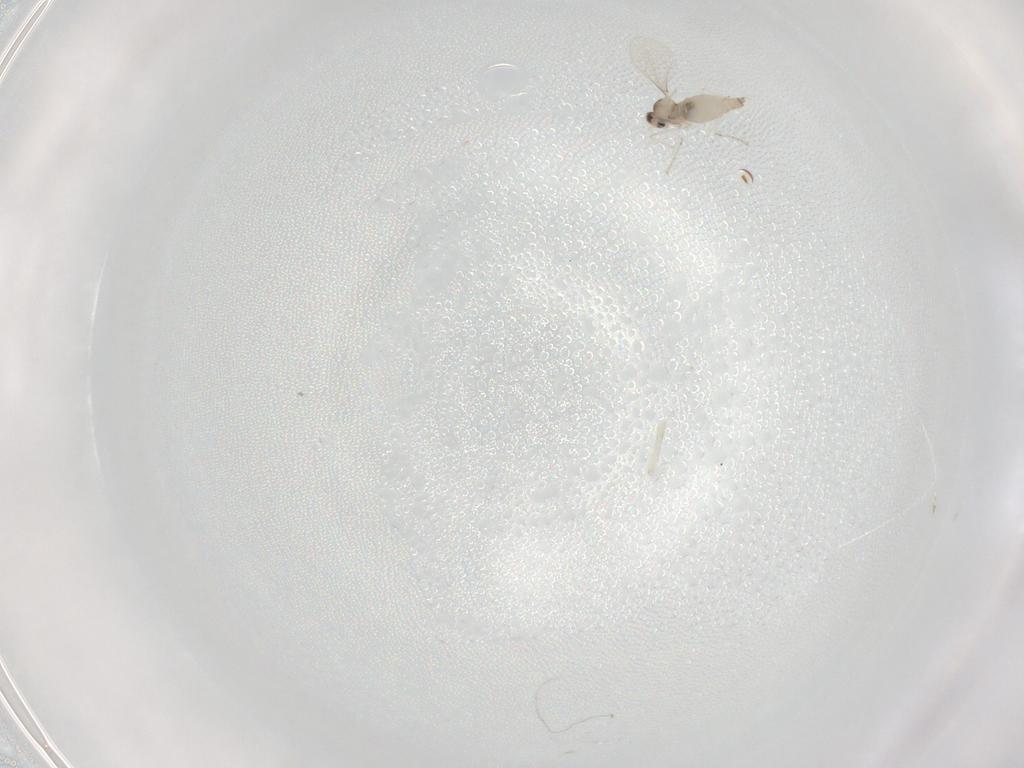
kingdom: Animalia
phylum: Arthropoda
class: Insecta
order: Diptera
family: Cecidomyiidae
